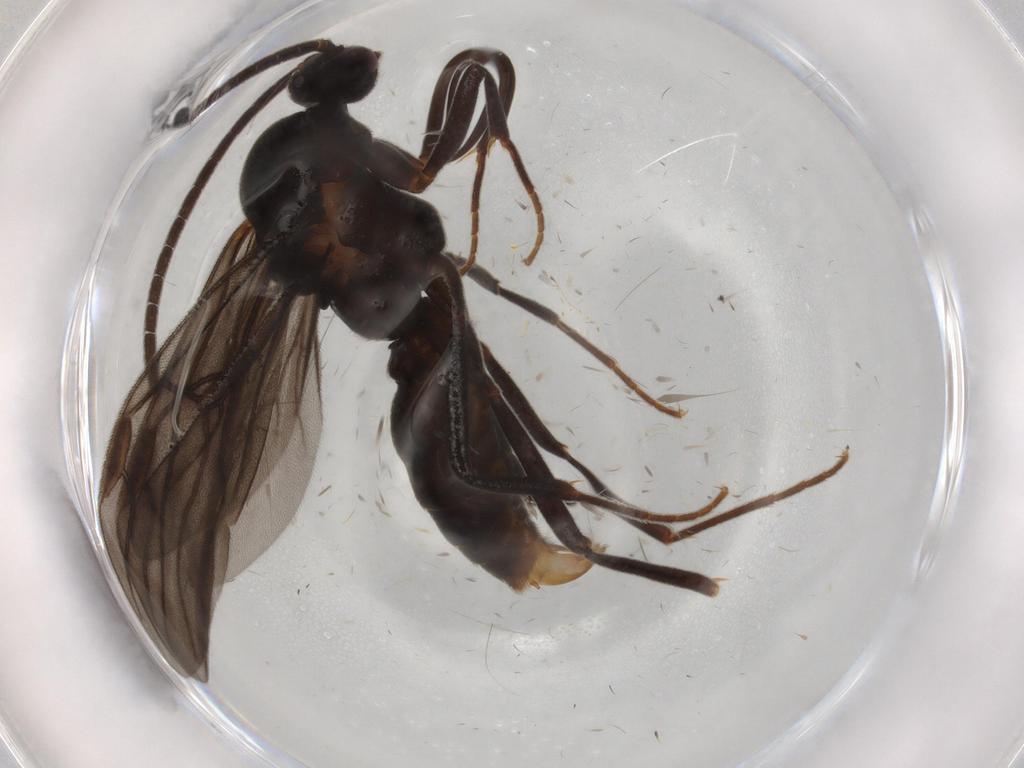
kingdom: Animalia
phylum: Arthropoda
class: Insecta
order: Hymenoptera
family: Formicidae
